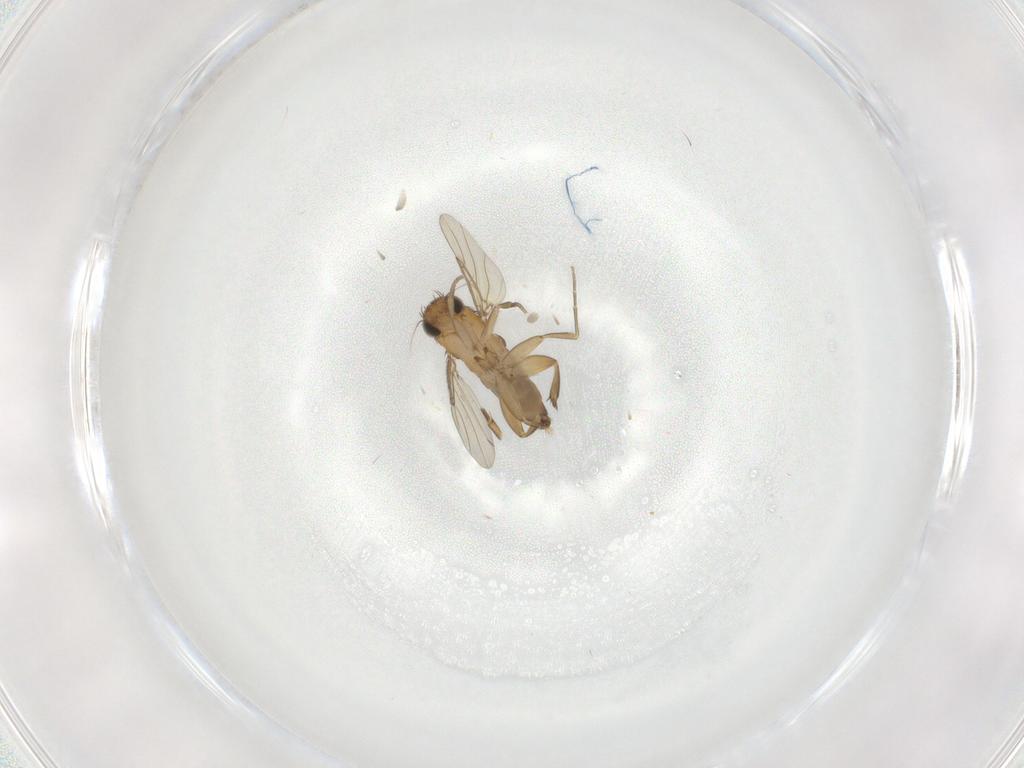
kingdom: Animalia
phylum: Arthropoda
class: Insecta
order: Diptera
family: Phoridae
